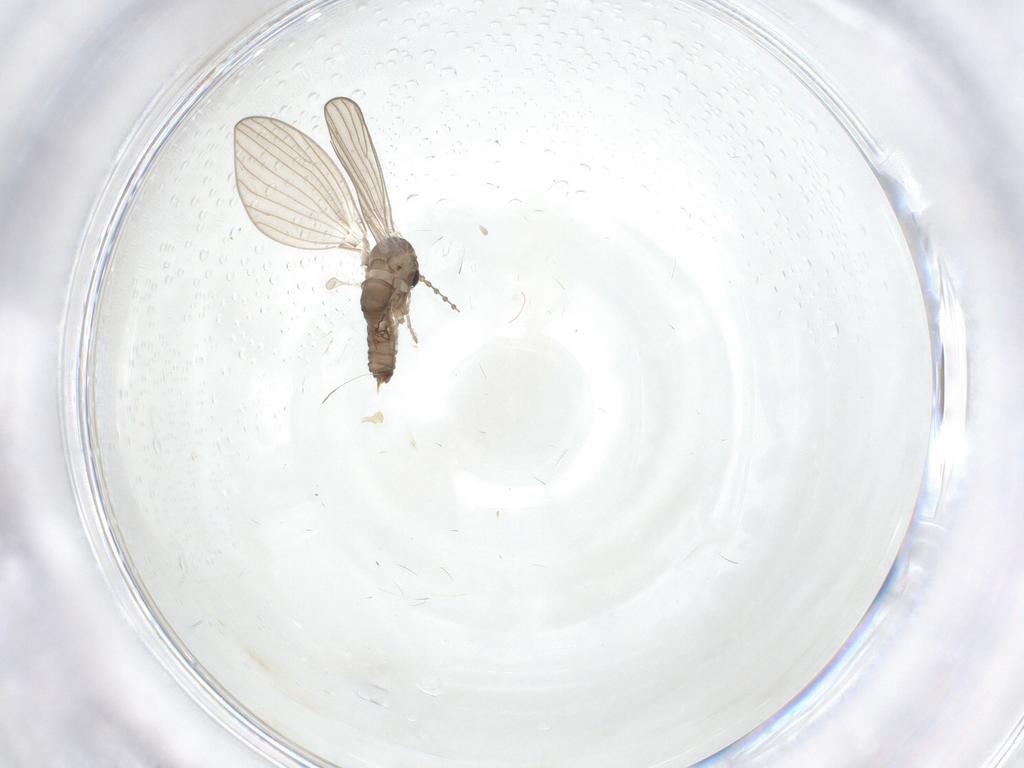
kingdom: Animalia
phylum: Arthropoda
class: Insecta
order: Diptera
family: Psychodidae
